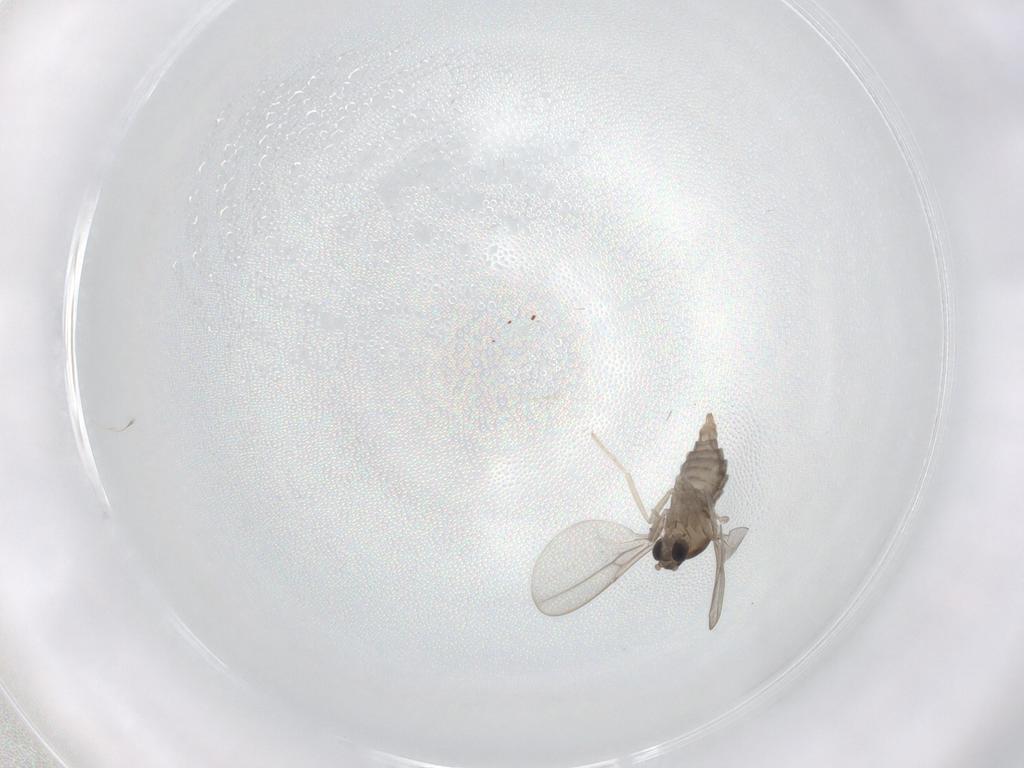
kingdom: Animalia
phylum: Arthropoda
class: Insecta
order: Diptera
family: Cecidomyiidae
